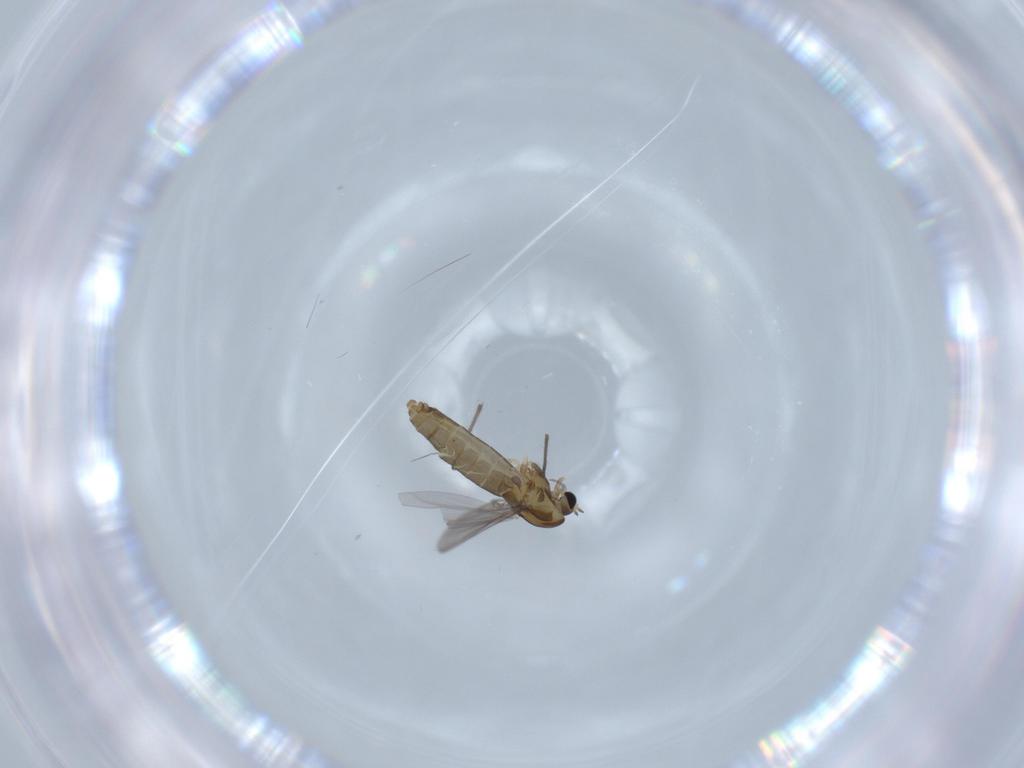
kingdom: Animalia
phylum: Arthropoda
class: Insecta
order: Diptera
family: Chironomidae
